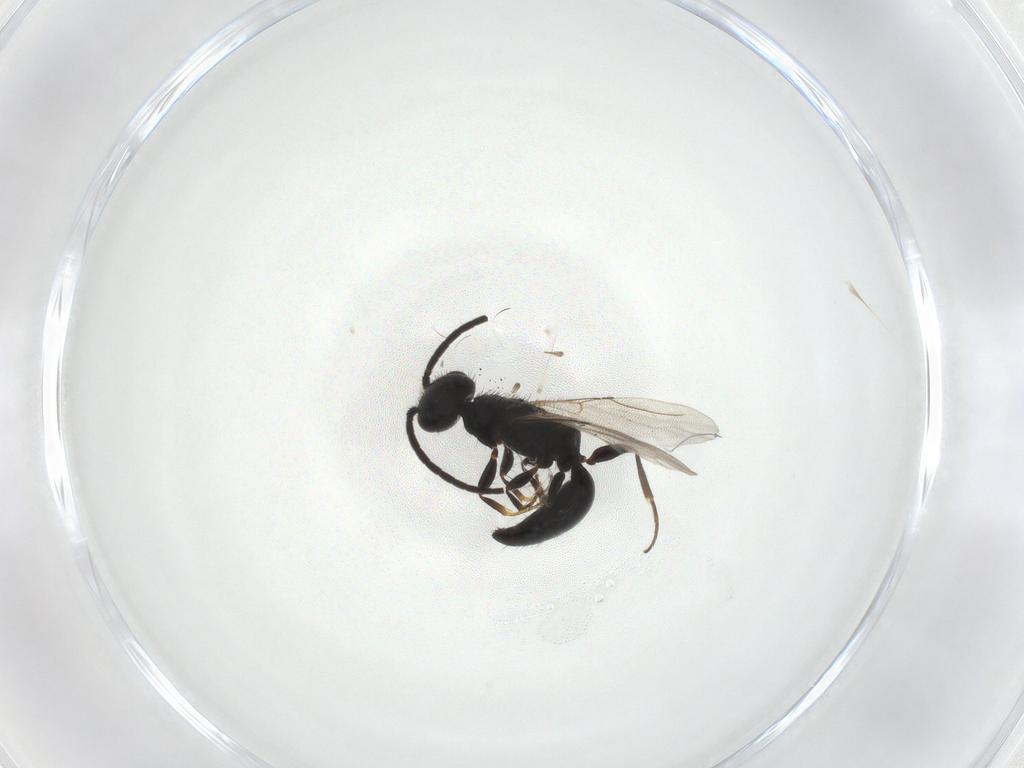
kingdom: Animalia
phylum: Arthropoda
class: Insecta
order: Hymenoptera
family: Bethylidae
